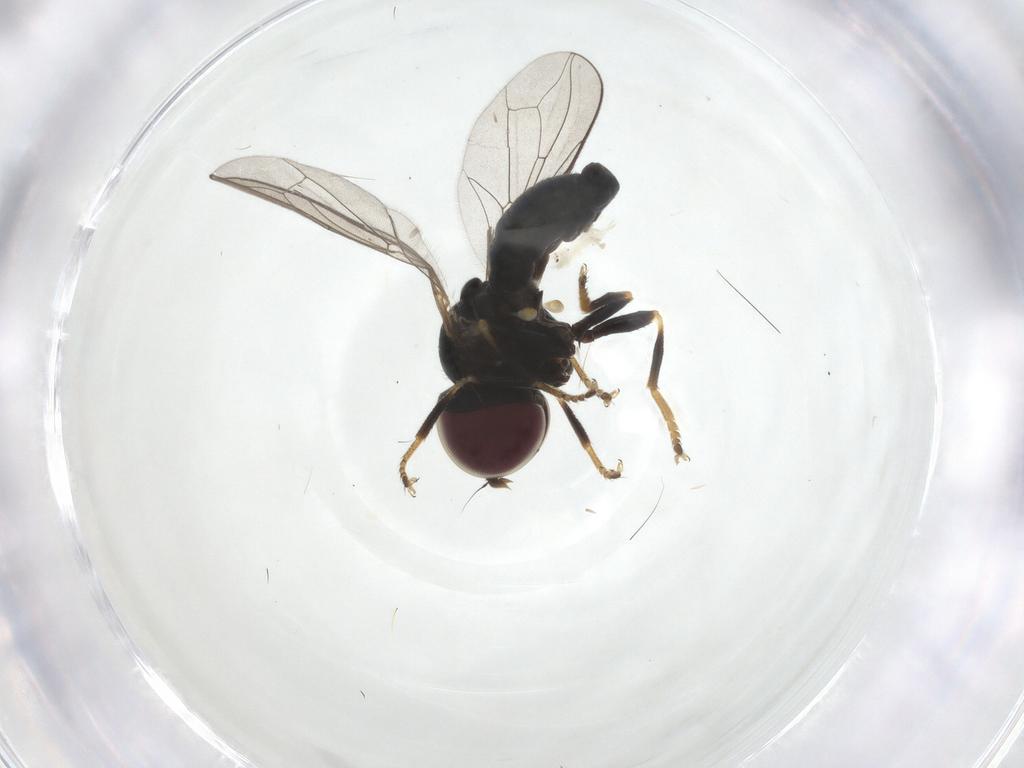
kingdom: Animalia
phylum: Arthropoda
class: Insecta
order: Diptera
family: Pipunculidae
